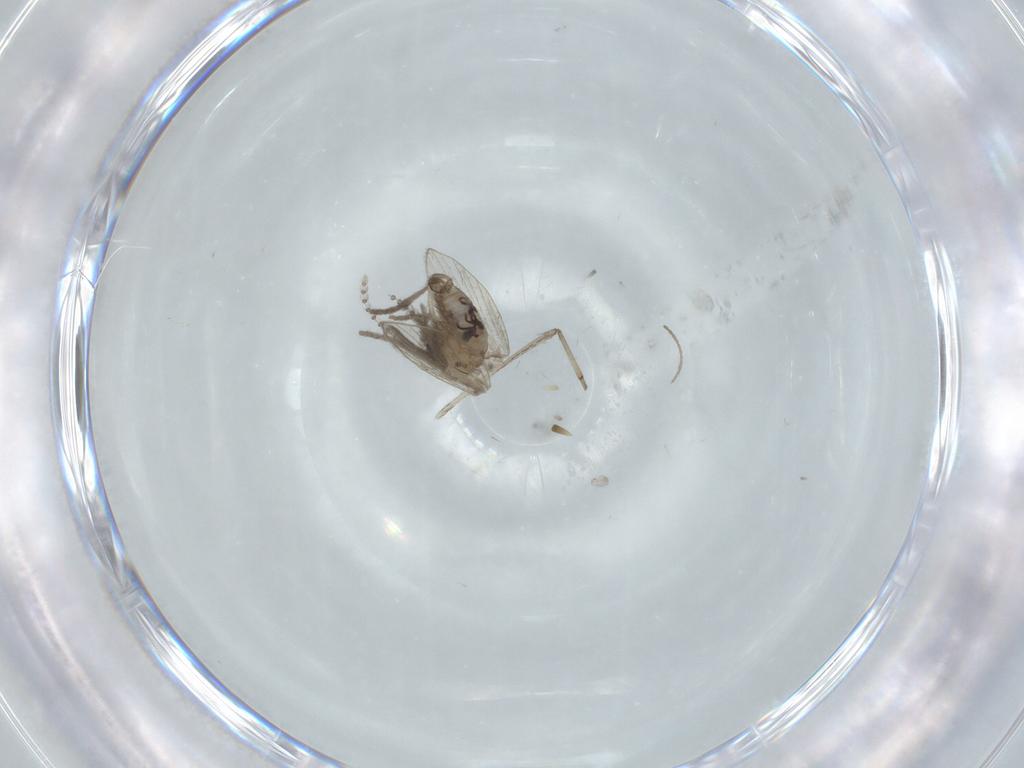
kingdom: Animalia
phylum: Arthropoda
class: Insecta
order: Diptera
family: Psychodidae
